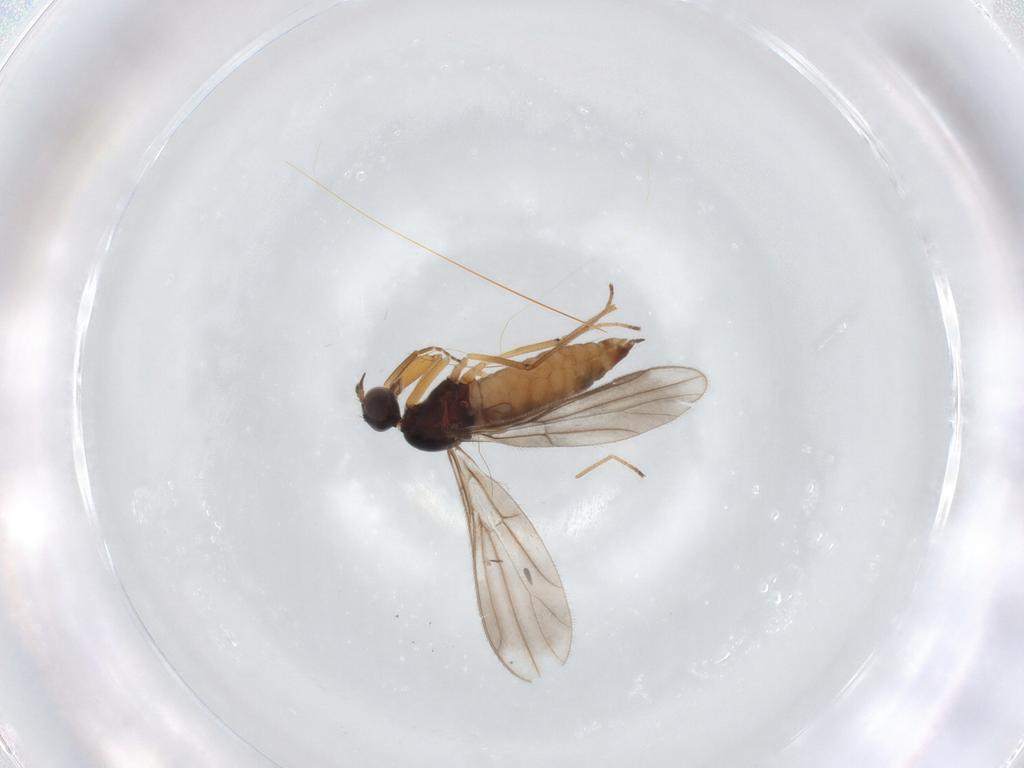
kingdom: Animalia
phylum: Arthropoda
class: Insecta
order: Diptera
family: Empididae
